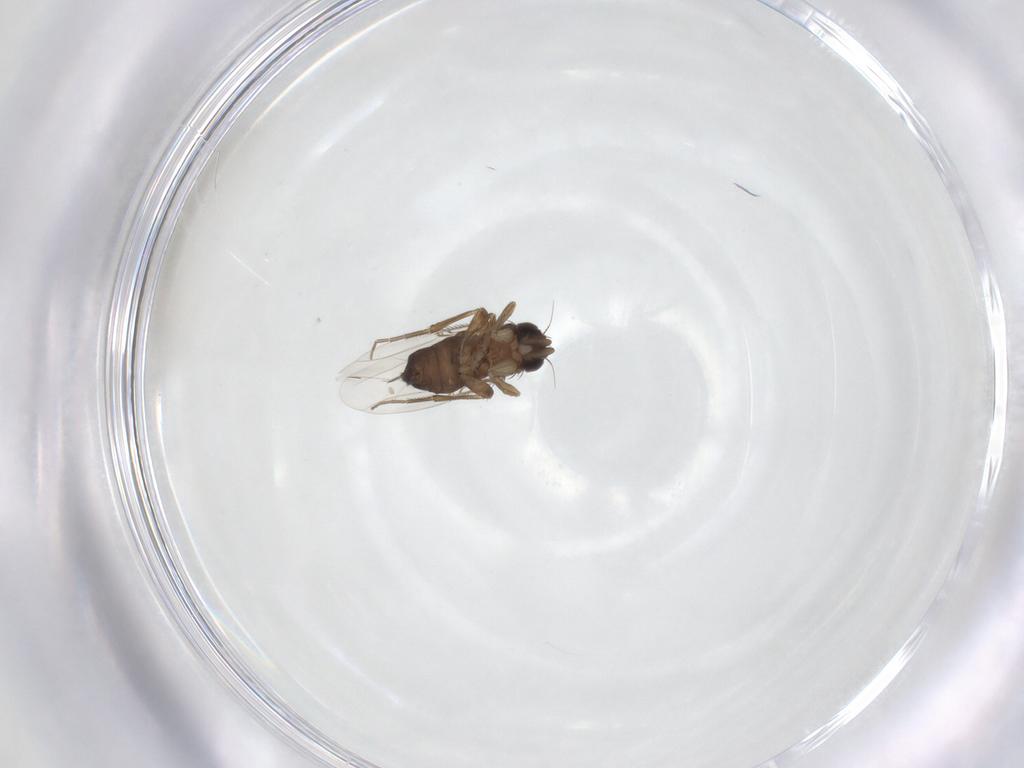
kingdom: Animalia
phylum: Arthropoda
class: Insecta
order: Diptera
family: Phoridae
